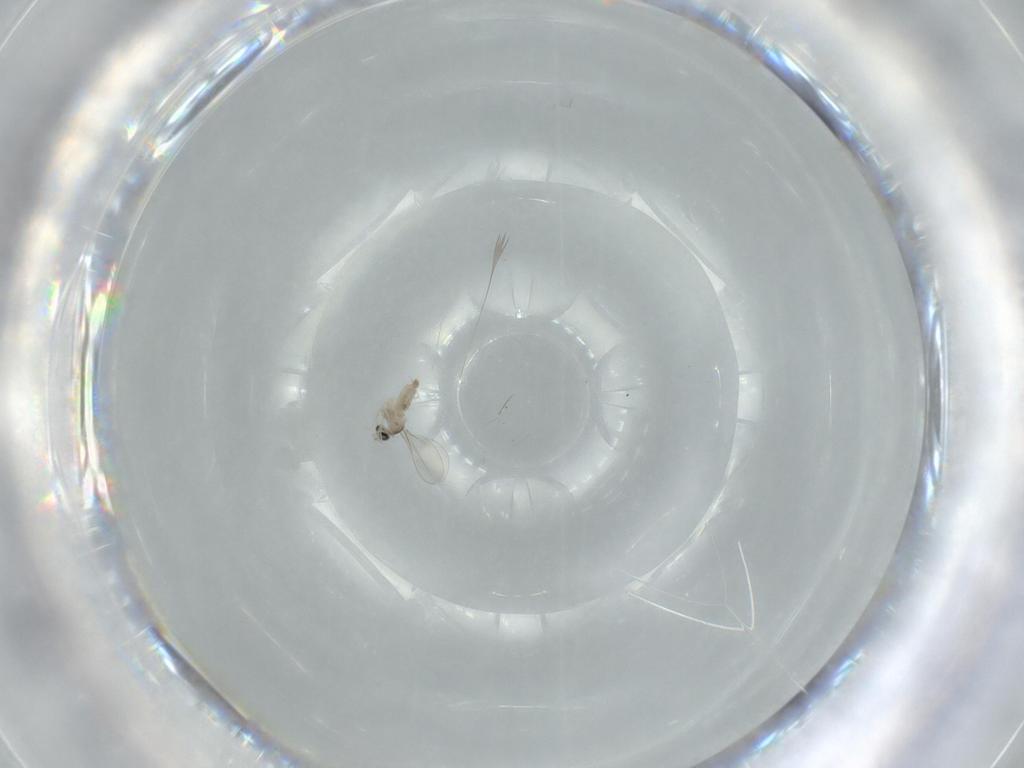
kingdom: Animalia
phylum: Arthropoda
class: Insecta
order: Diptera
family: Cecidomyiidae
